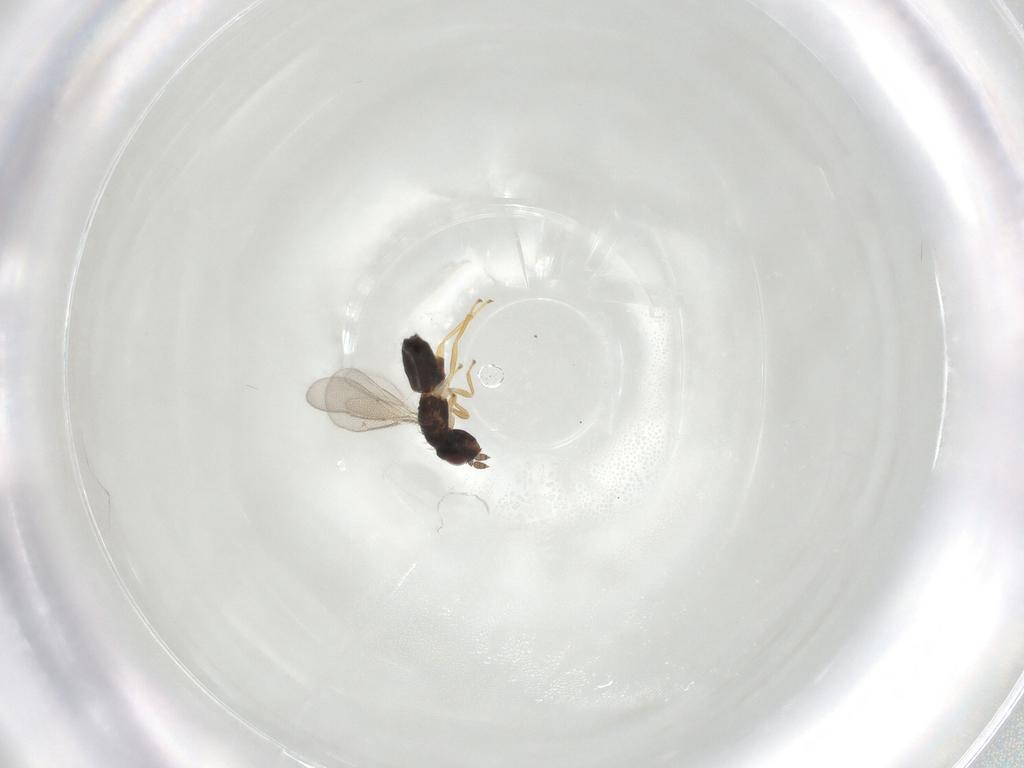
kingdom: Animalia
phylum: Arthropoda
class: Insecta
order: Hymenoptera
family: Eulophidae
